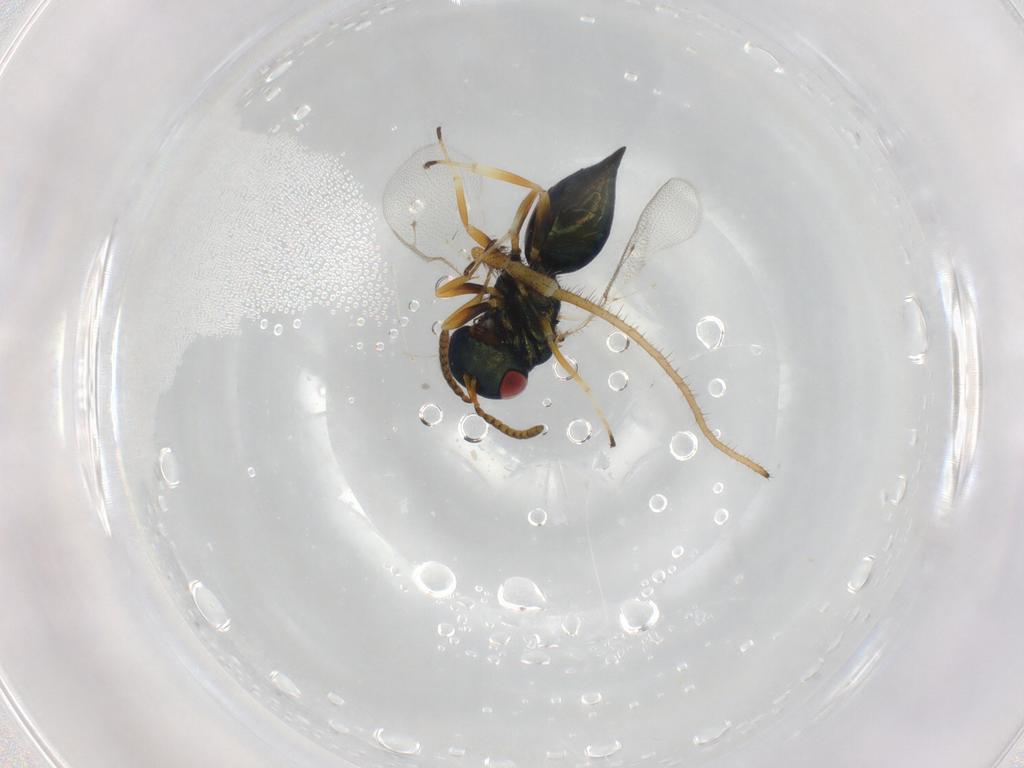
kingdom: Animalia
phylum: Arthropoda
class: Insecta
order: Hymenoptera
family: Pteromalidae
